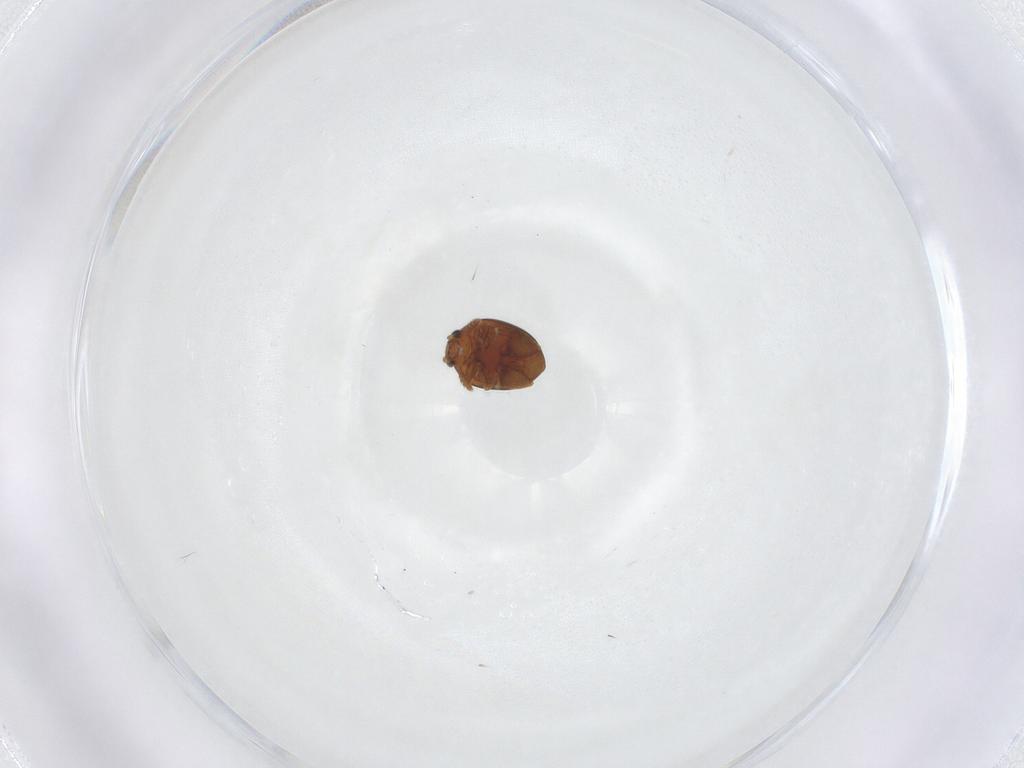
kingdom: Animalia
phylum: Arthropoda
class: Insecta
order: Coleoptera
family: Chrysomelidae
